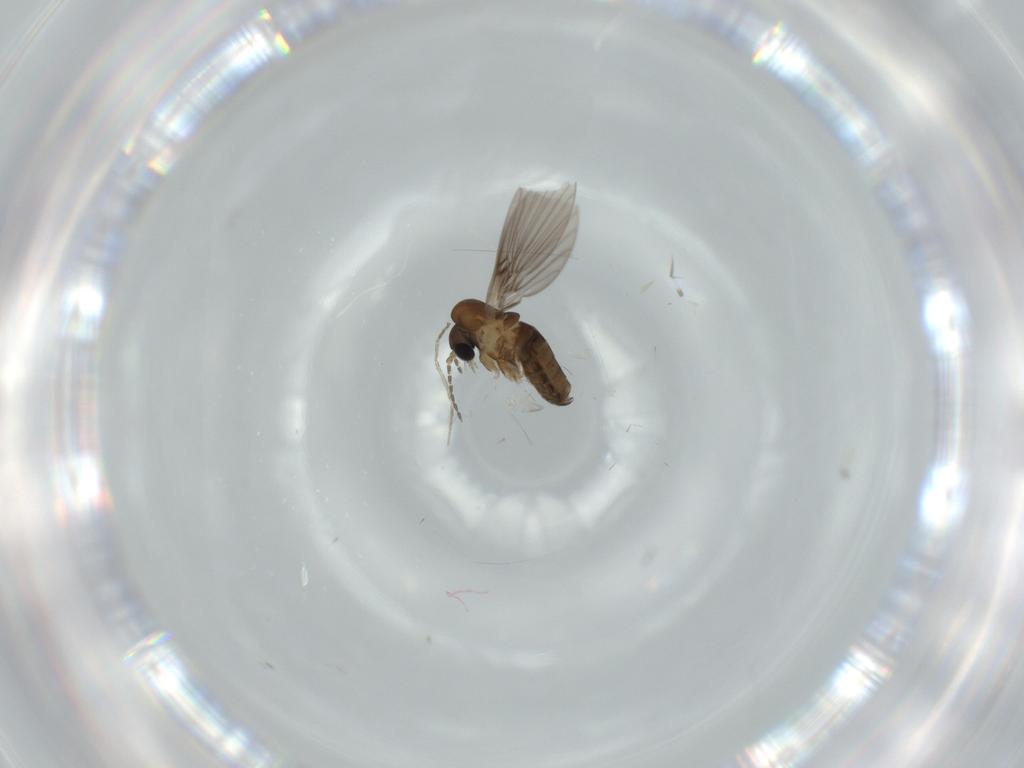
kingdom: Animalia
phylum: Arthropoda
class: Insecta
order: Diptera
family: Psychodidae
